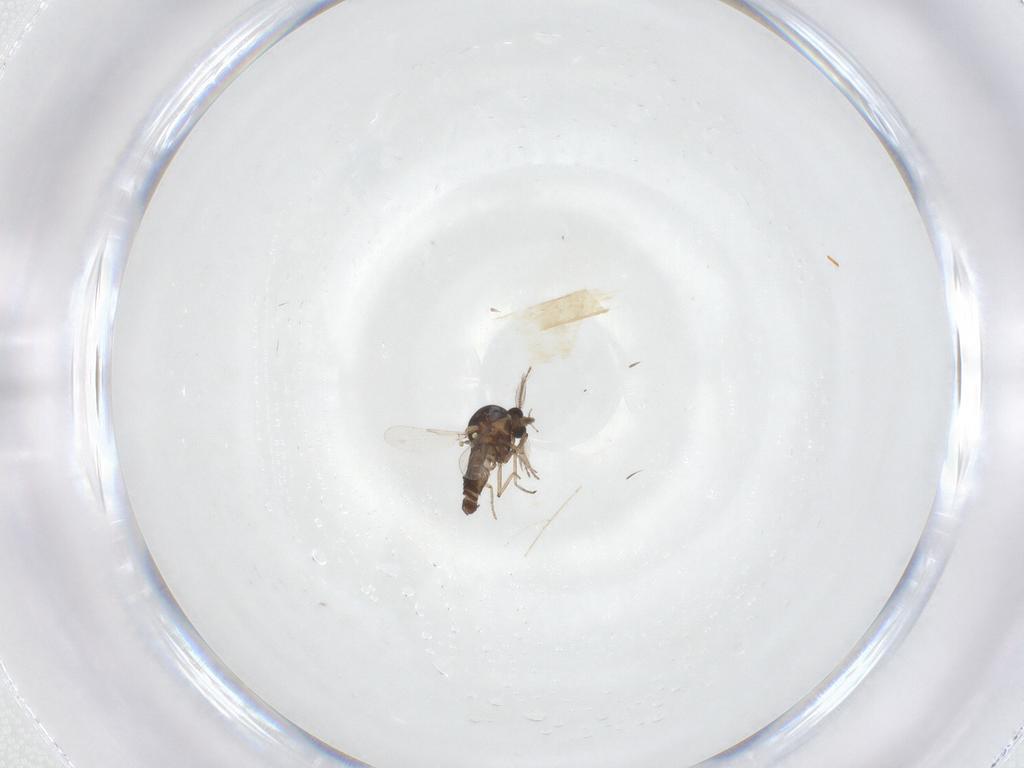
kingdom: Animalia
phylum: Arthropoda
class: Insecta
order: Diptera
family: Ceratopogonidae
